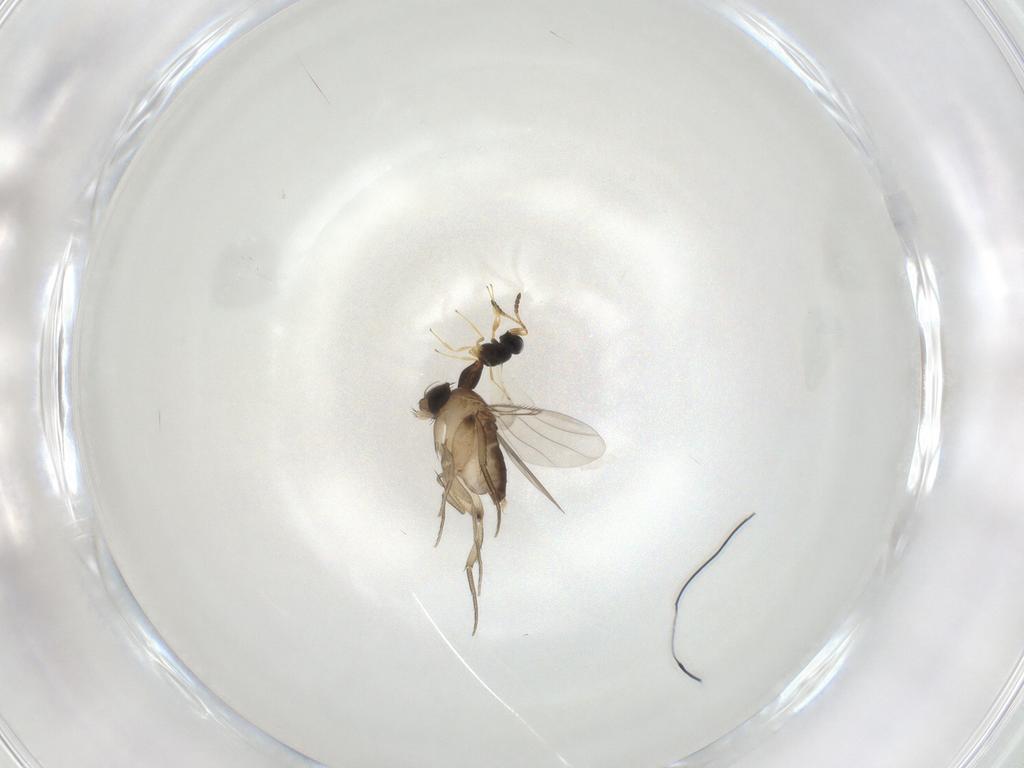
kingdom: Animalia
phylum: Arthropoda
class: Insecta
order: Diptera
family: Phoridae
